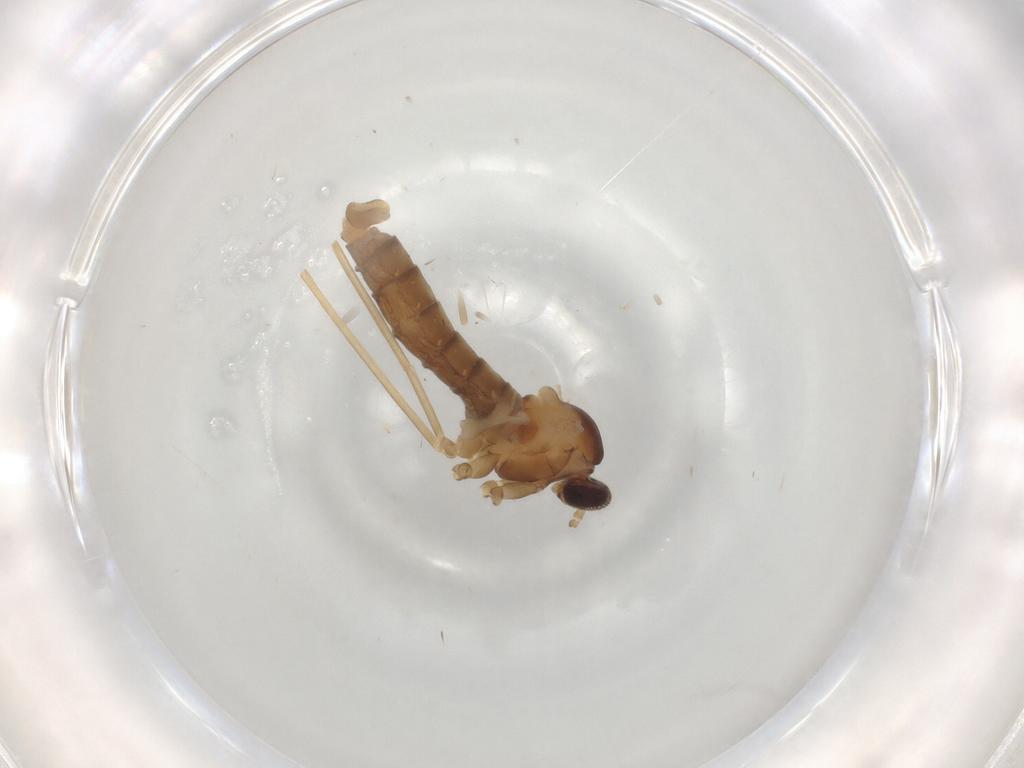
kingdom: Animalia
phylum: Arthropoda
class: Insecta
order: Diptera
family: Cecidomyiidae
